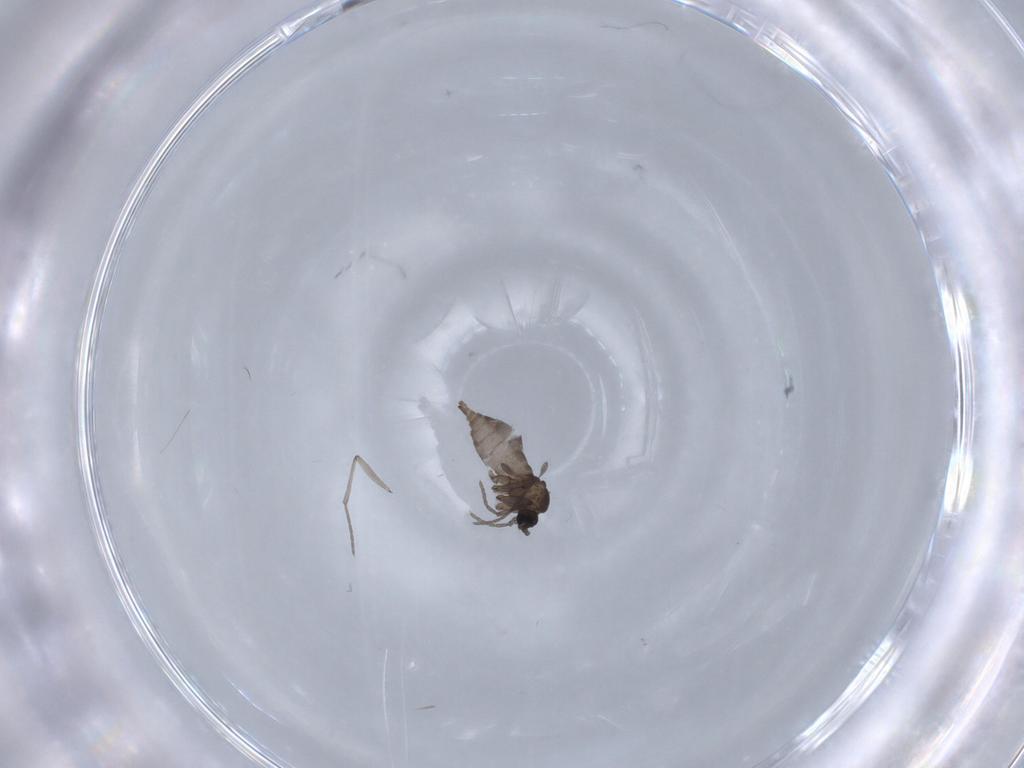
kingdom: Animalia
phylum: Arthropoda
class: Insecta
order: Diptera
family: Sciaridae
